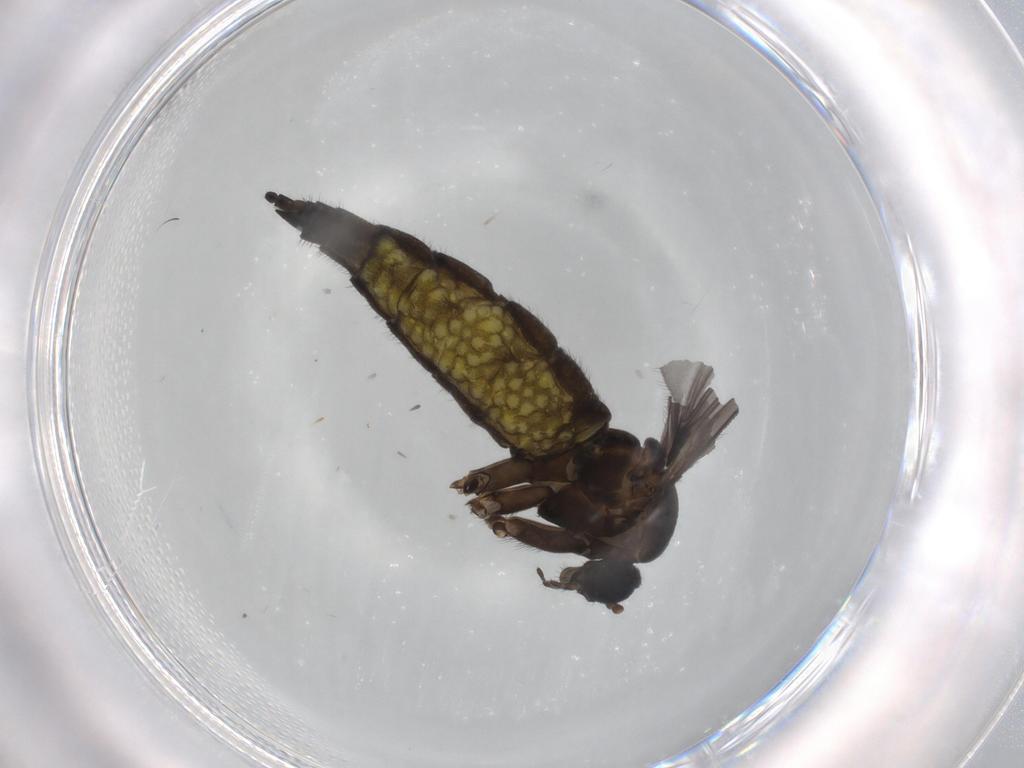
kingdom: Animalia
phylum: Arthropoda
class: Insecta
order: Diptera
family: Sciaridae
